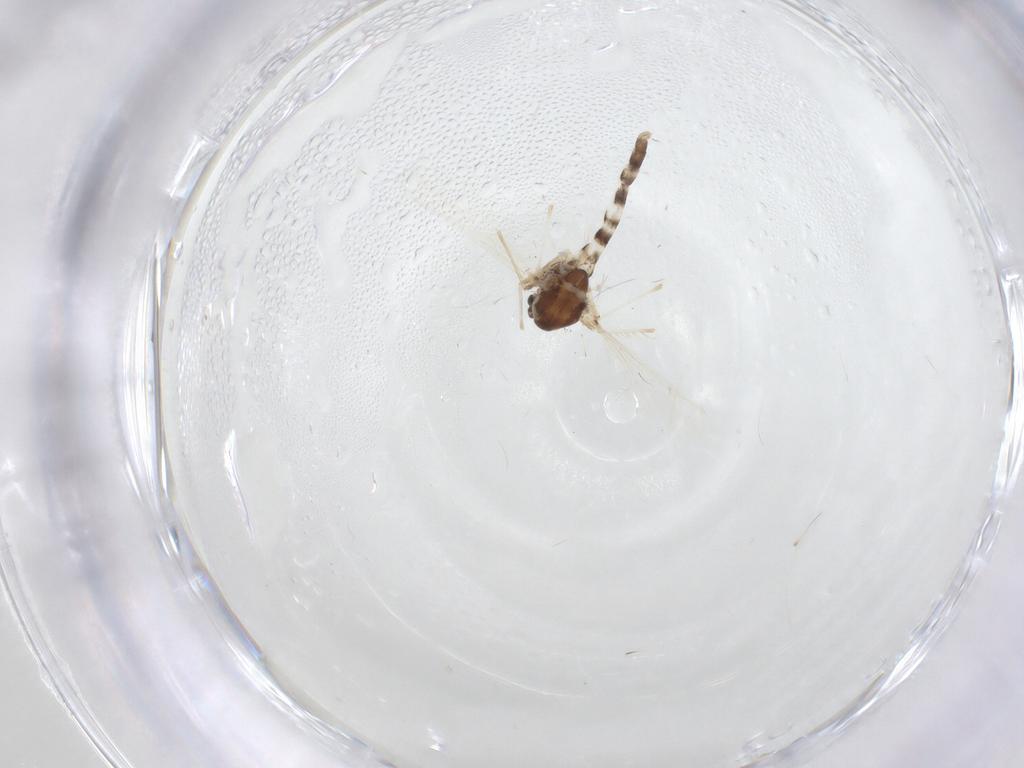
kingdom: Animalia
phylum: Arthropoda
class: Insecta
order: Diptera
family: Chironomidae
